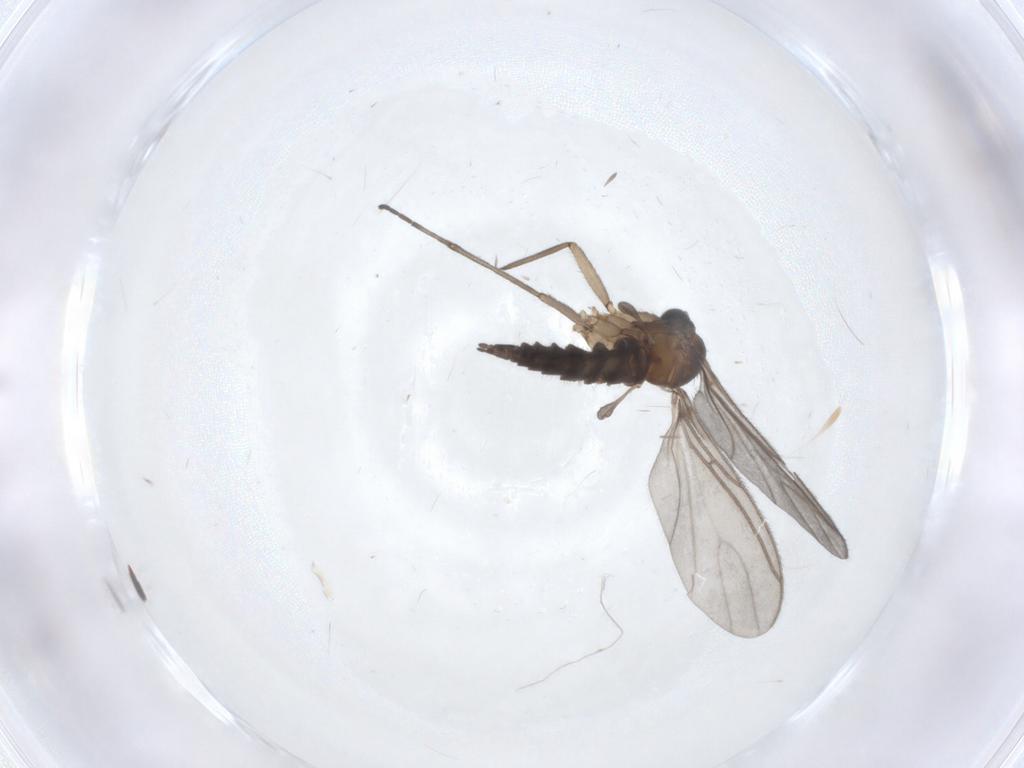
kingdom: Animalia
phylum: Arthropoda
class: Insecta
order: Diptera
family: Sciaridae
